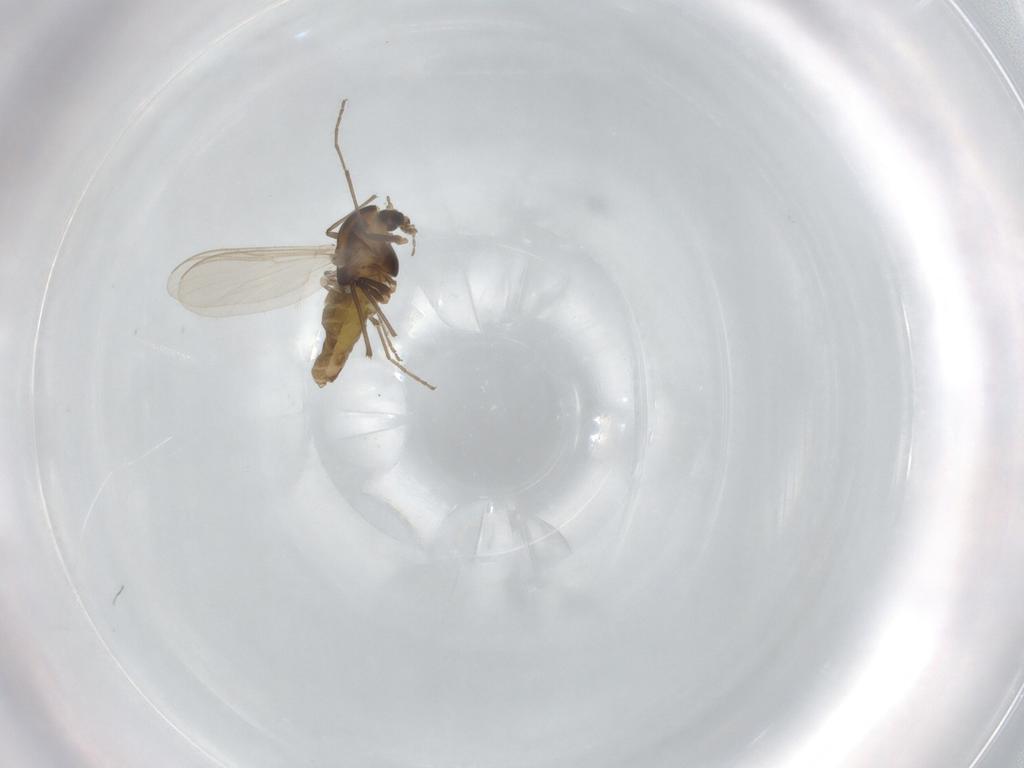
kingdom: Animalia
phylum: Arthropoda
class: Insecta
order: Diptera
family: Chironomidae
